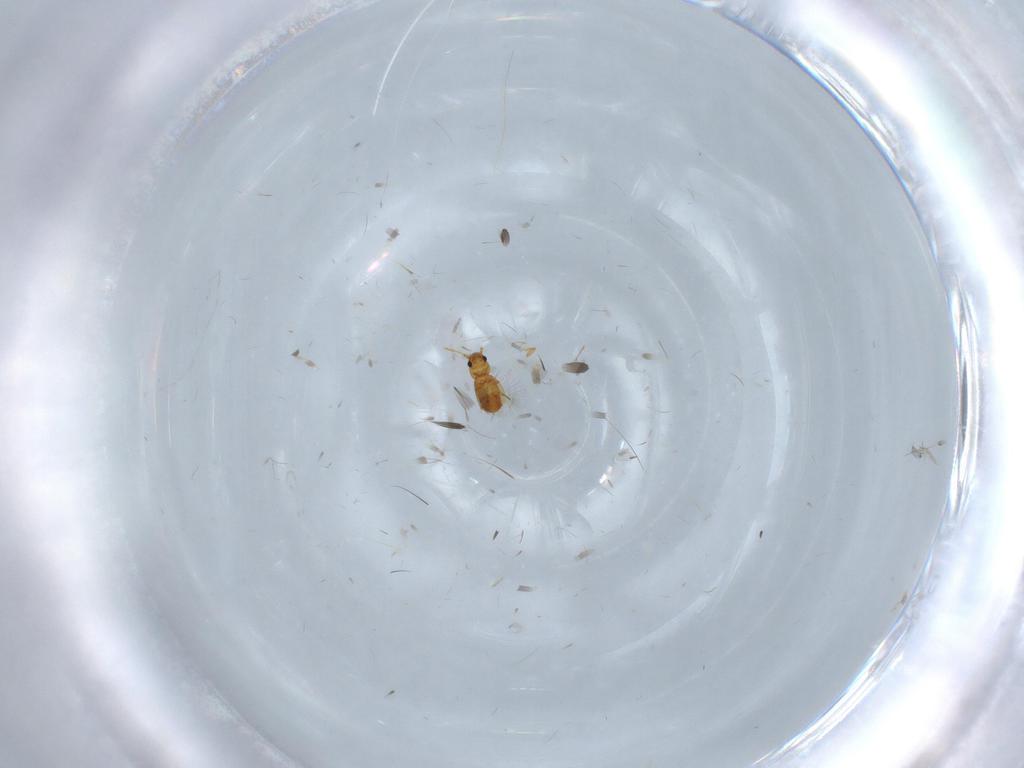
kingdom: Animalia
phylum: Arthropoda
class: Insecta
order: Coleoptera
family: Ptiliidae
